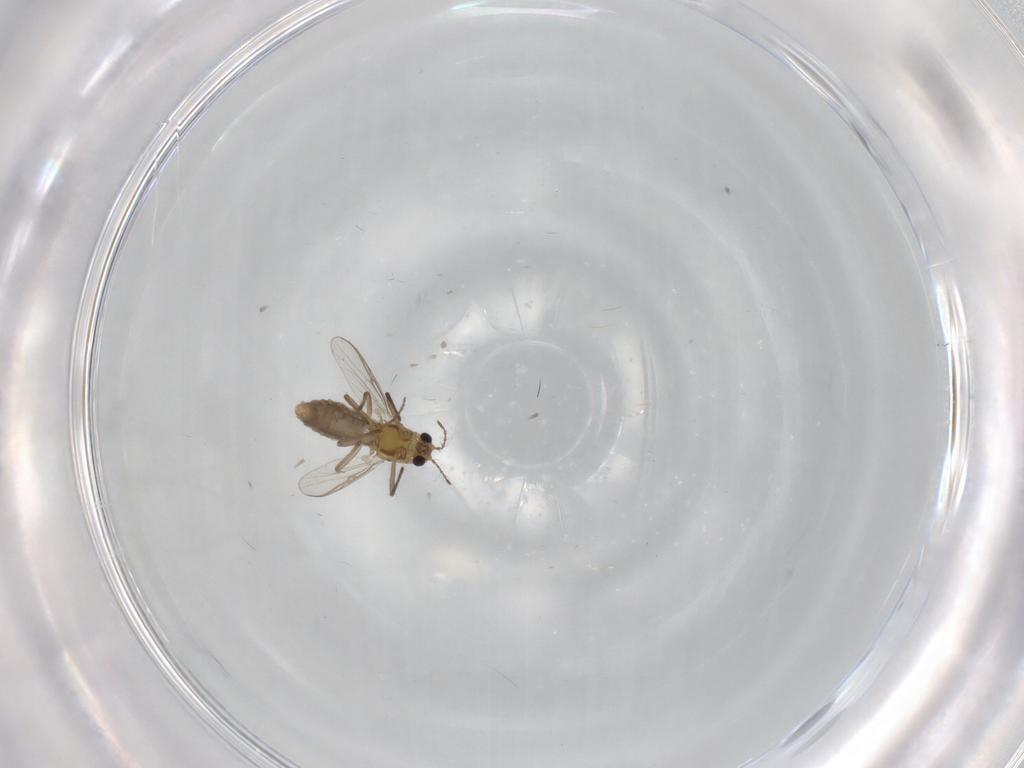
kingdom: Animalia
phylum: Arthropoda
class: Insecta
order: Diptera
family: Chironomidae
